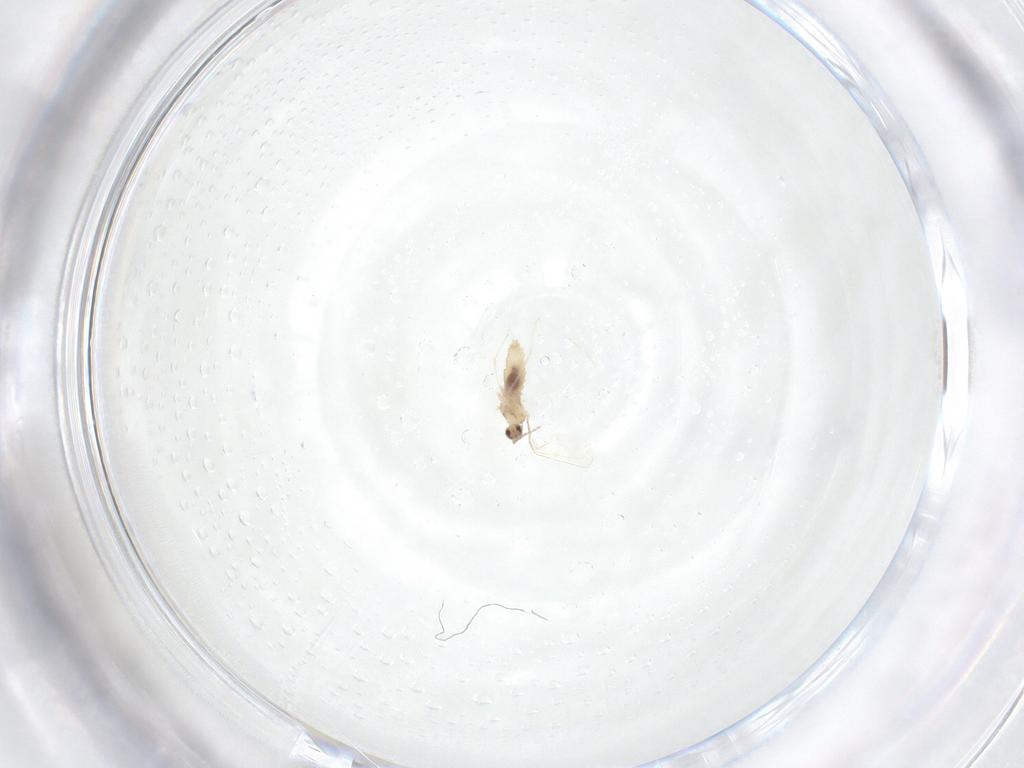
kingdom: Animalia
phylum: Arthropoda
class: Insecta
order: Diptera
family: Cecidomyiidae
